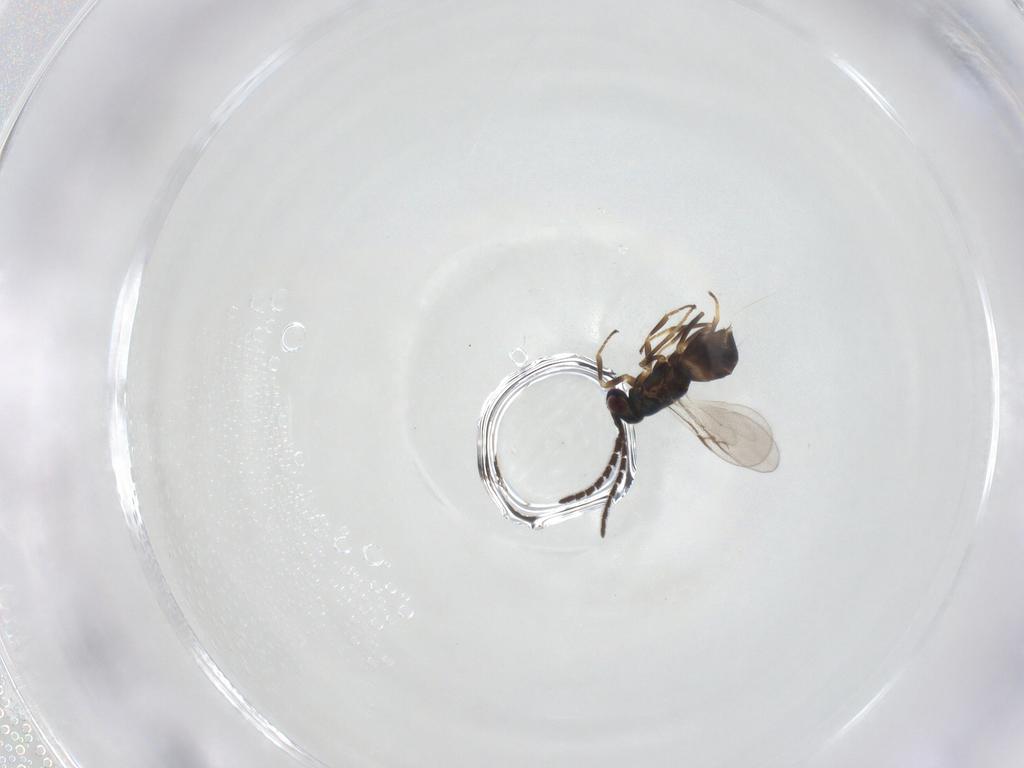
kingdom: Animalia
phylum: Arthropoda
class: Insecta
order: Hymenoptera
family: Encyrtidae
